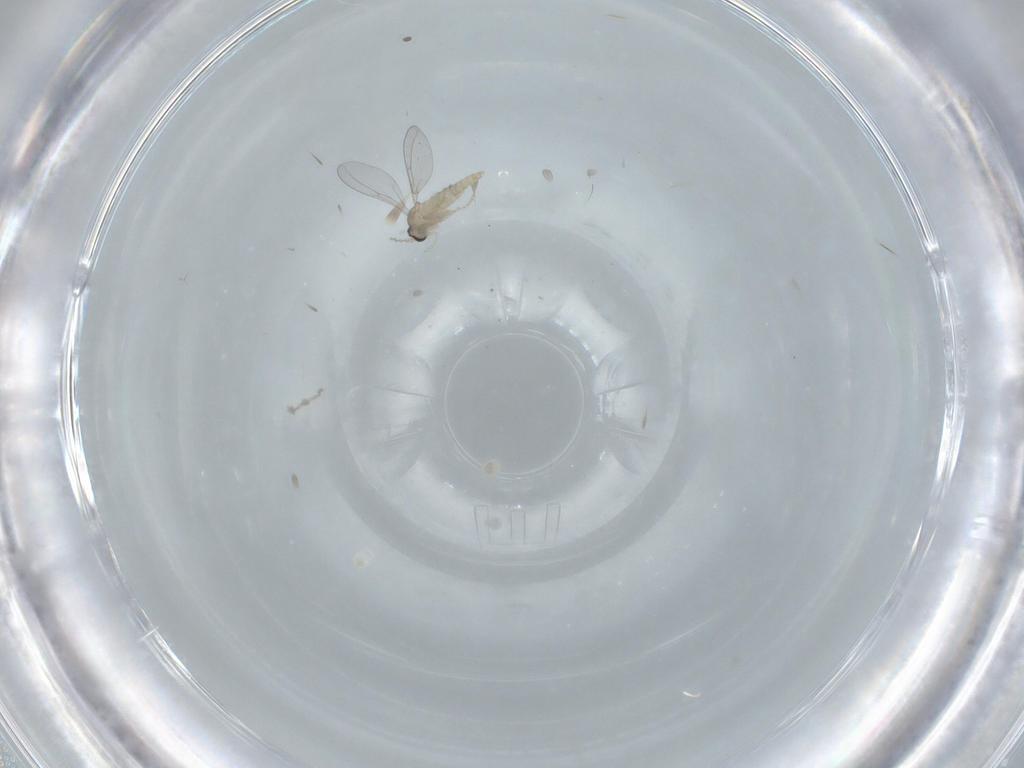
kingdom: Animalia
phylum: Arthropoda
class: Insecta
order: Diptera
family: Cecidomyiidae
